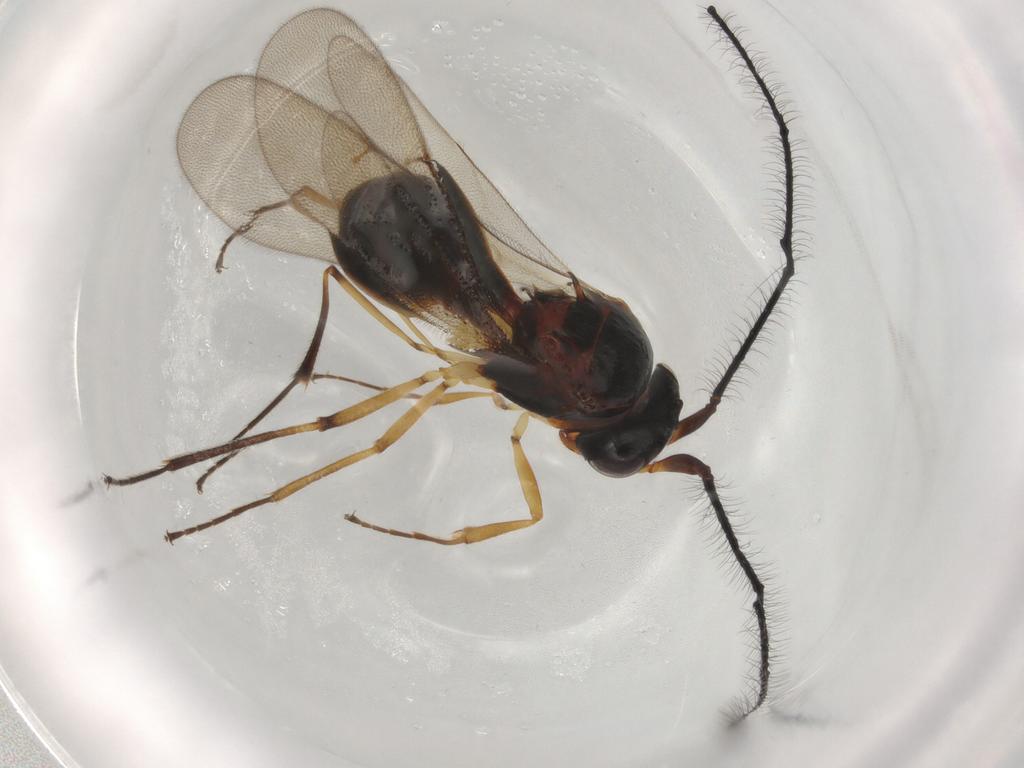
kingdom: Animalia
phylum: Arthropoda
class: Insecta
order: Hymenoptera
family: Scelionidae
